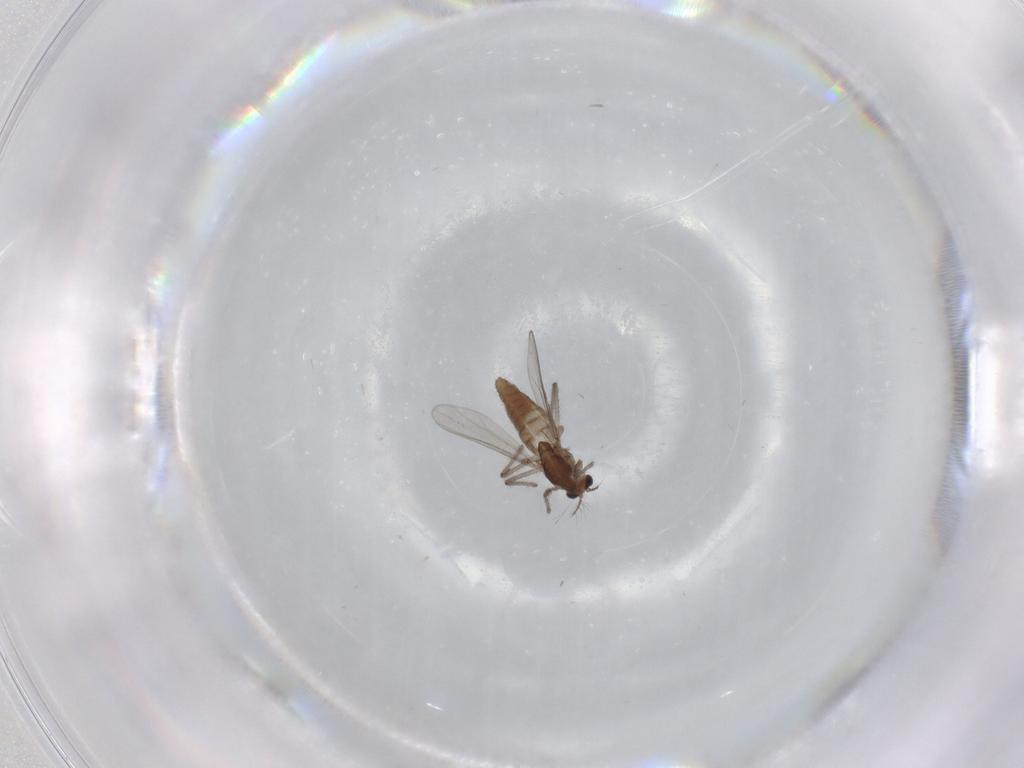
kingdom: Animalia
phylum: Arthropoda
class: Insecta
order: Diptera
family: Chironomidae
